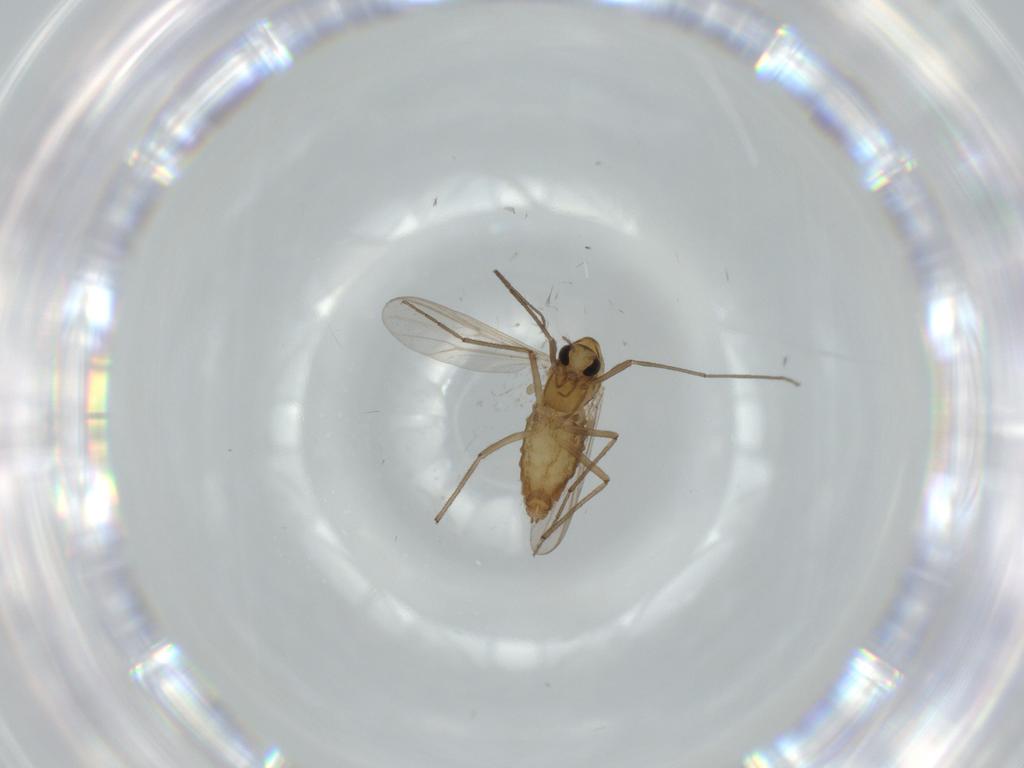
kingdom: Animalia
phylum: Arthropoda
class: Insecta
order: Diptera
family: Chironomidae
